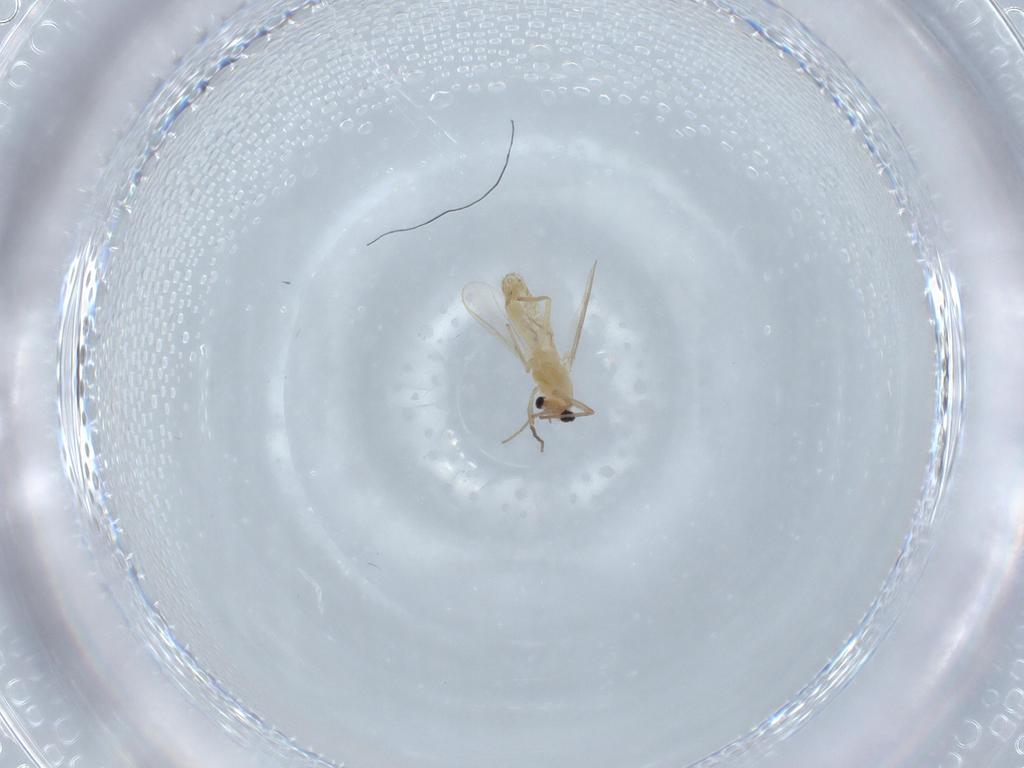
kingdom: Animalia
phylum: Arthropoda
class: Insecta
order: Diptera
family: Chironomidae
